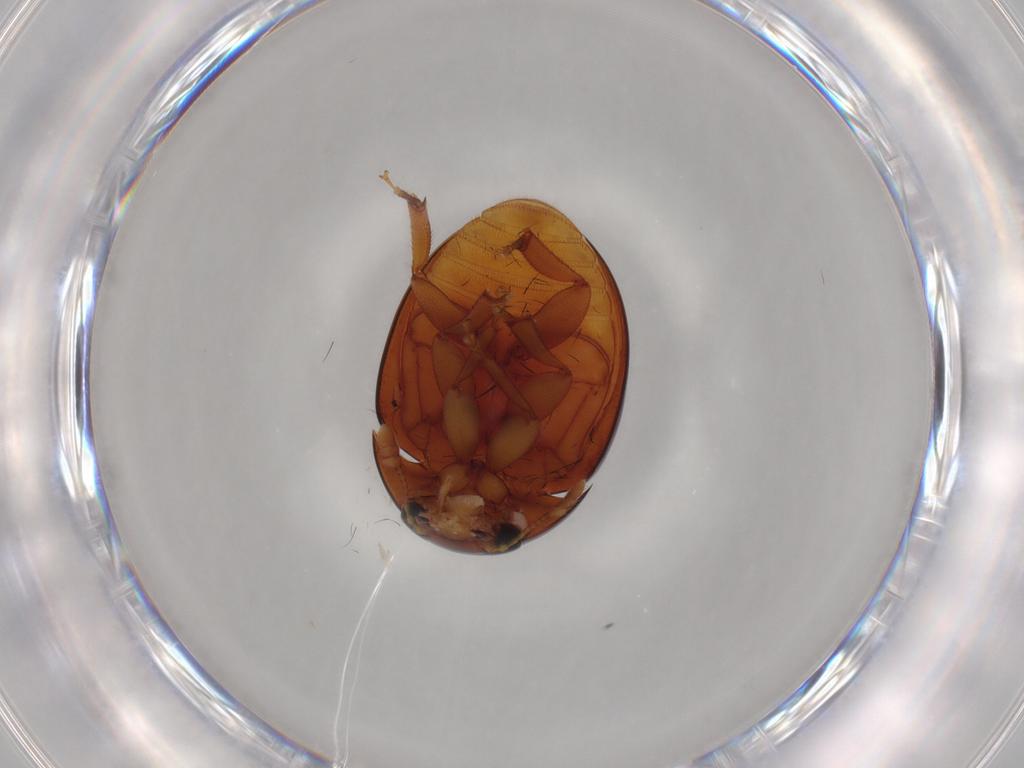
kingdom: Animalia
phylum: Arthropoda
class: Insecta
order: Coleoptera
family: Phalacridae
